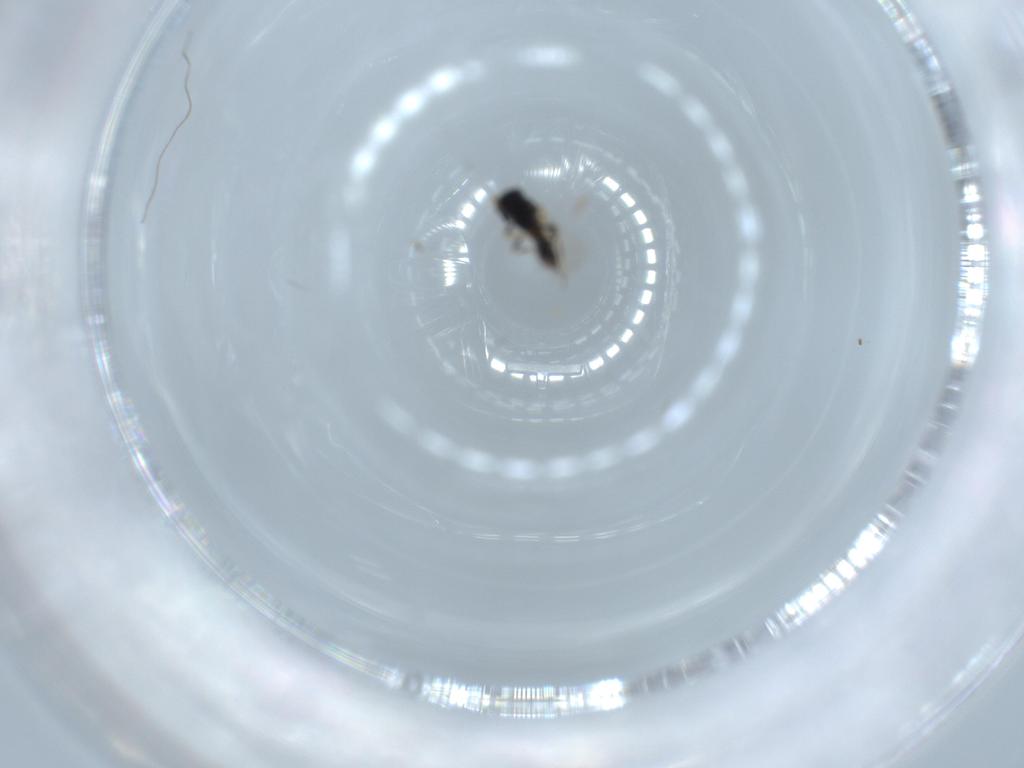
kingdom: Animalia
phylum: Arthropoda
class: Insecta
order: Hymenoptera
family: Platygastridae
